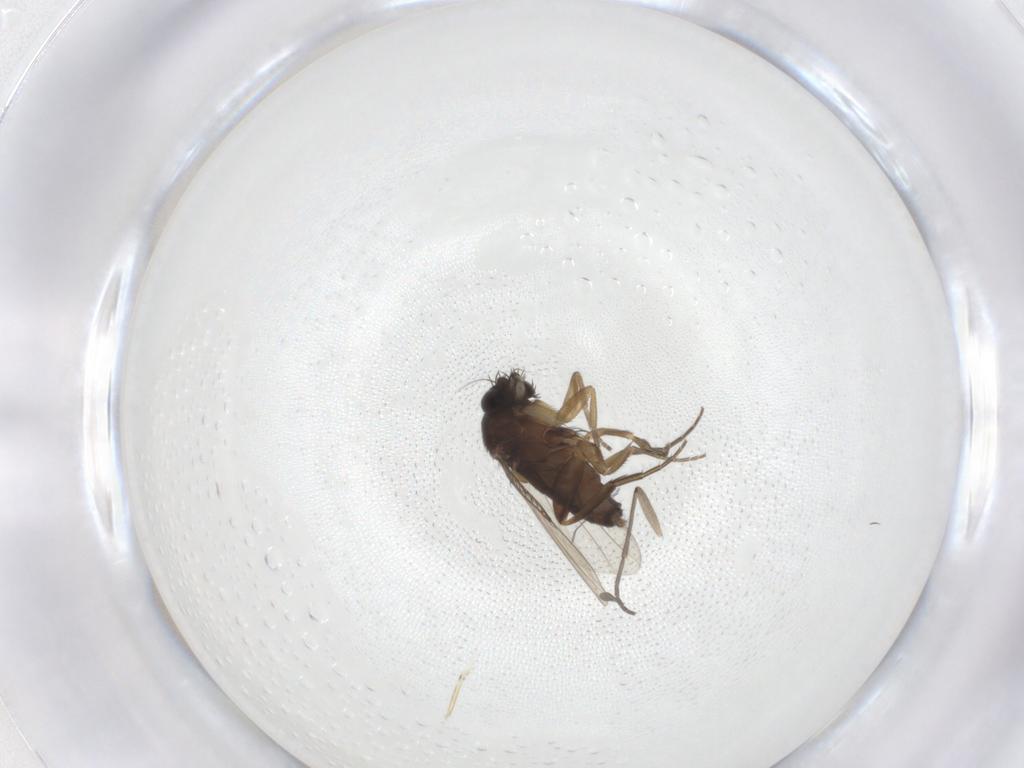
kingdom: Animalia
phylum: Arthropoda
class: Insecta
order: Diptera
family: Phoridae
